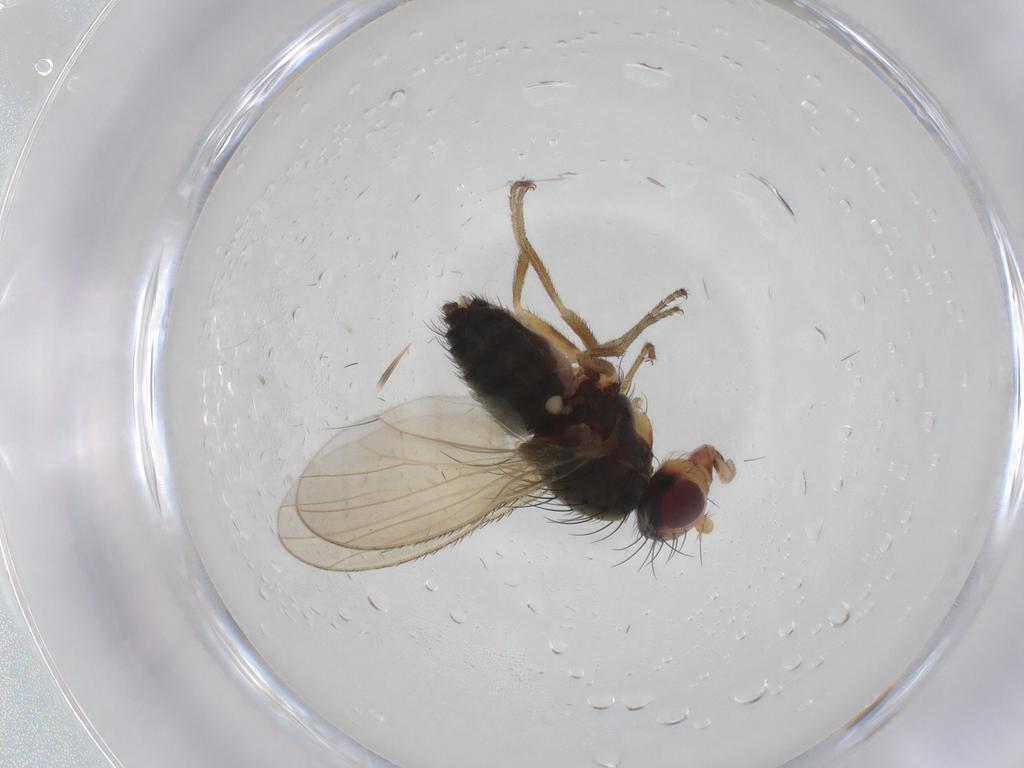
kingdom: Animalia
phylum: Arthropoda
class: Insecta
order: Diptera
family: Heleomyzidae
